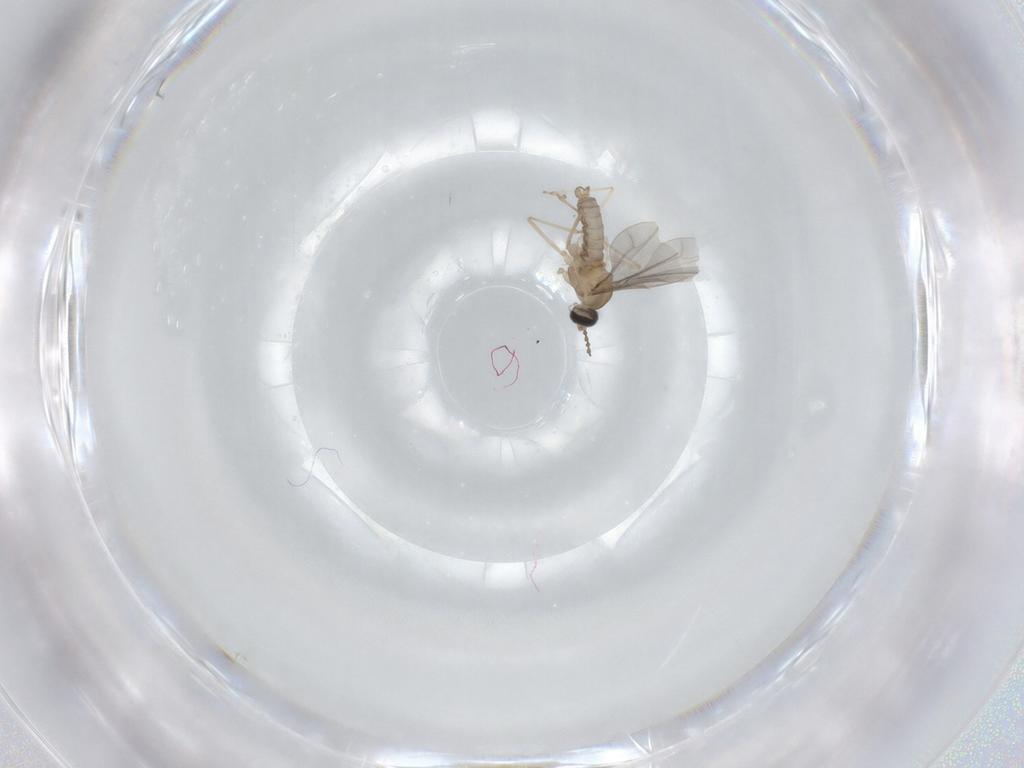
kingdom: Animalia
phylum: Arthropoda
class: Insecta
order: Diptera
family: Cecidomyiidae
